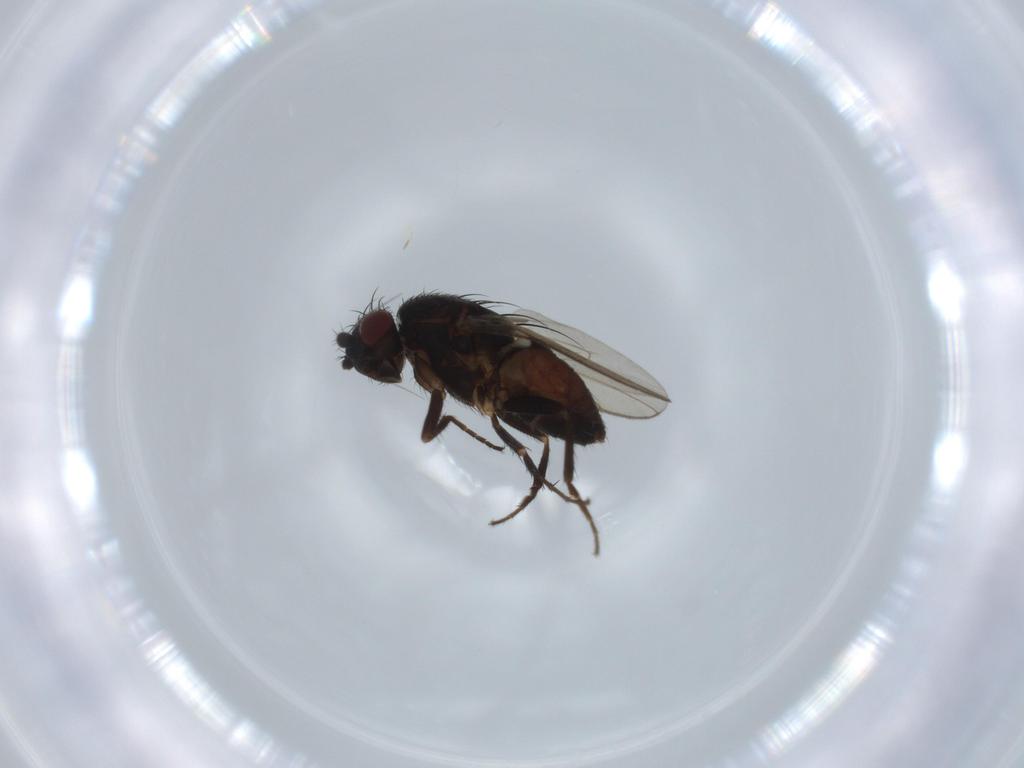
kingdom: Animalia
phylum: Arthropoda
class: Insecta
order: Diptera
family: Sphaeroceridae
